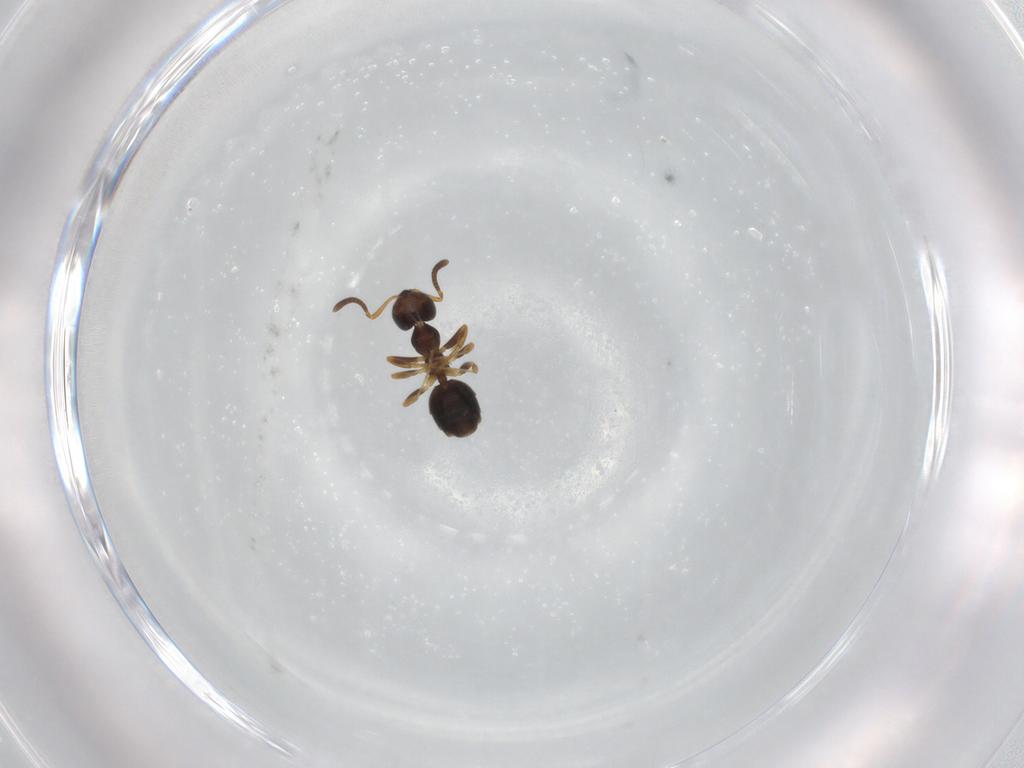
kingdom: Animalia
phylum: Arthropoda
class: Insecta
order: Hymenoptera
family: Formicidae
